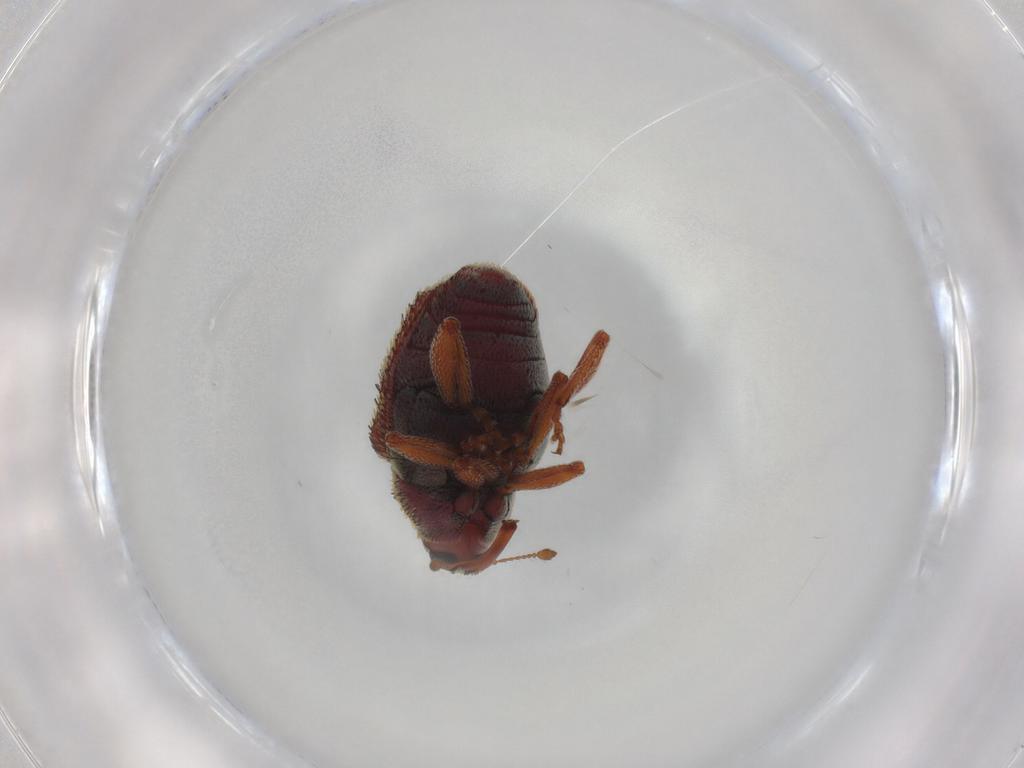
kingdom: Animalia
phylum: Arthropoda
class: Insecta
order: Coleoptera
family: Curculionidae
